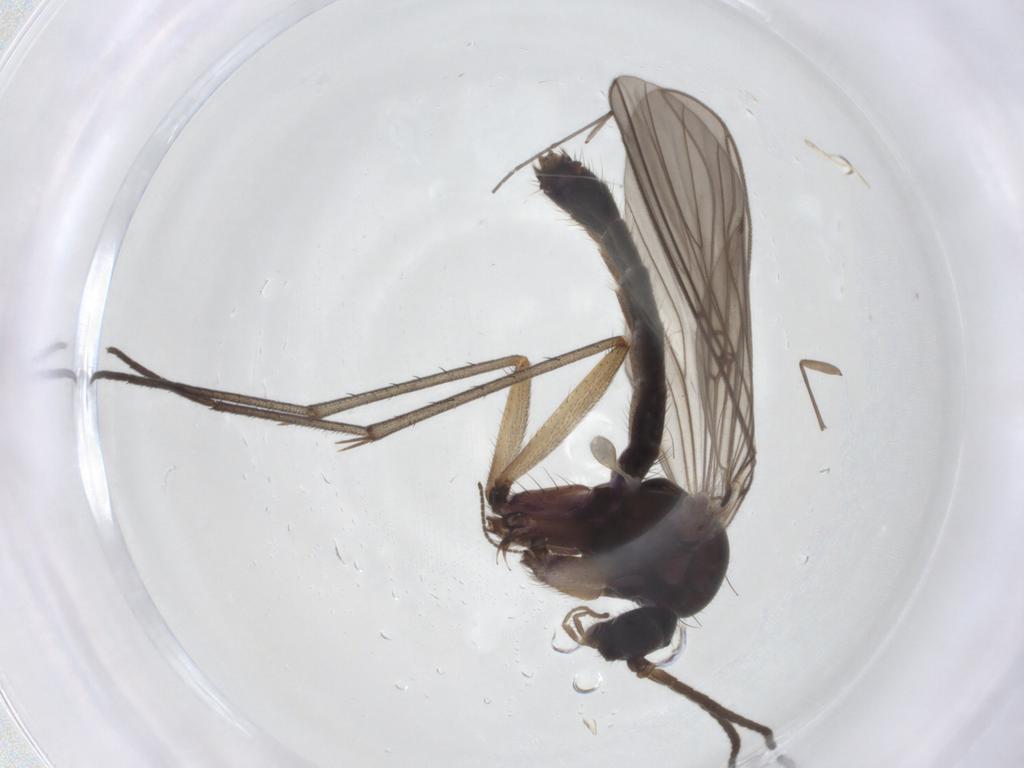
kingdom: Animalia
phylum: Arthropoda
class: Insecta
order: Diptera
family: Mycetophilidae
